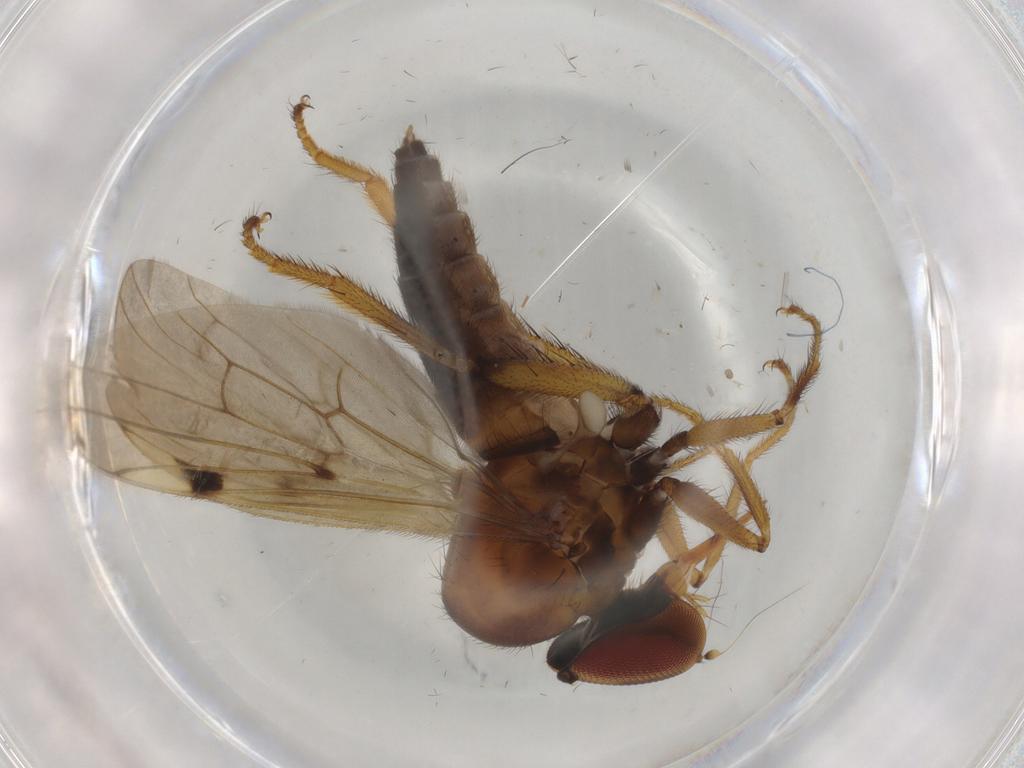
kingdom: Animalia
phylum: Arthropoda
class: Insecta
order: Diptera
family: Hybotidae
